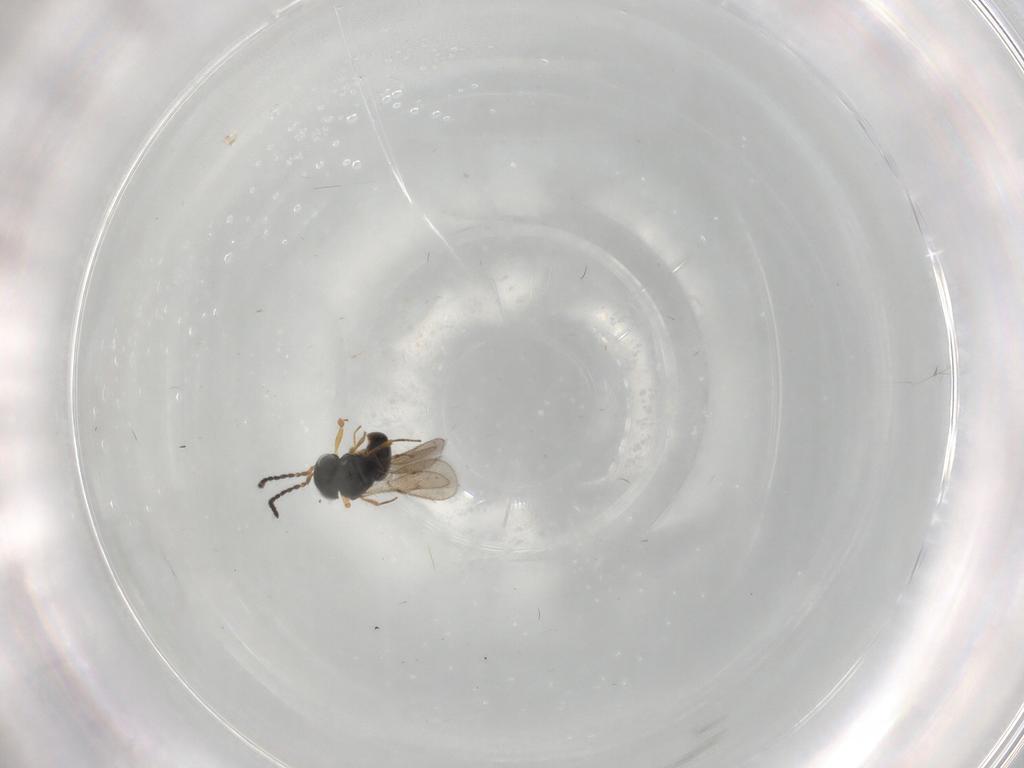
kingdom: Animalia
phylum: Arthropoda
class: Insecta
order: Hymenoptera
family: Scelionidae
